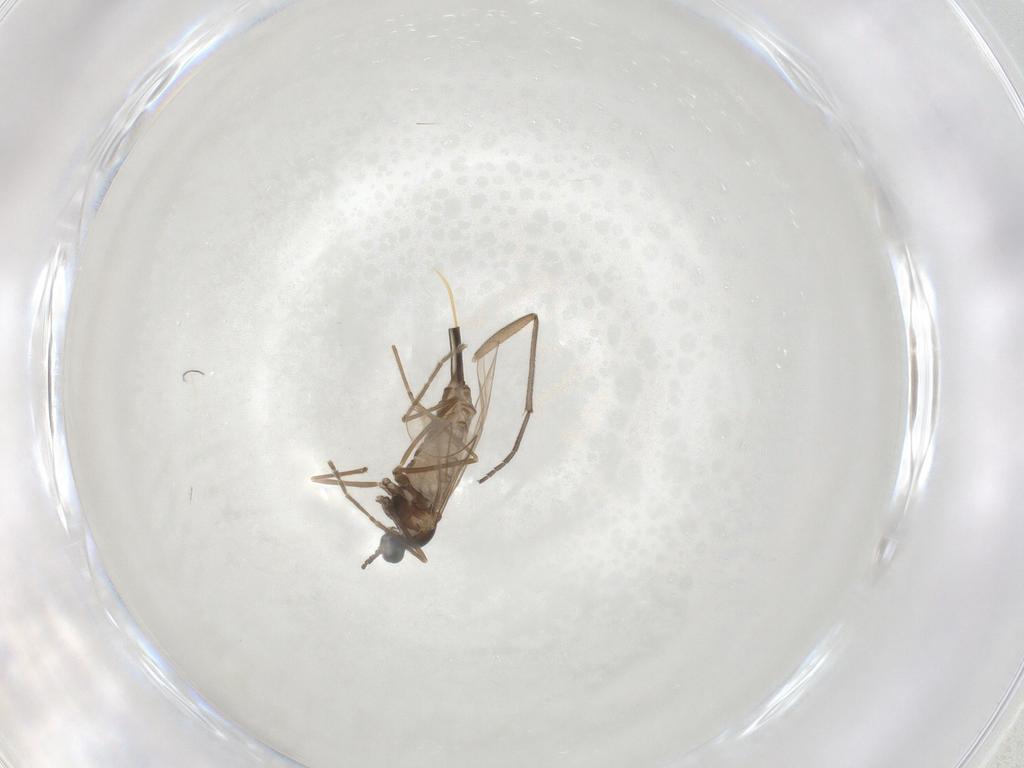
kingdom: Animalia
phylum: Arthropoda
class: Insecta
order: Diptera
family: Cecidomyiidae
